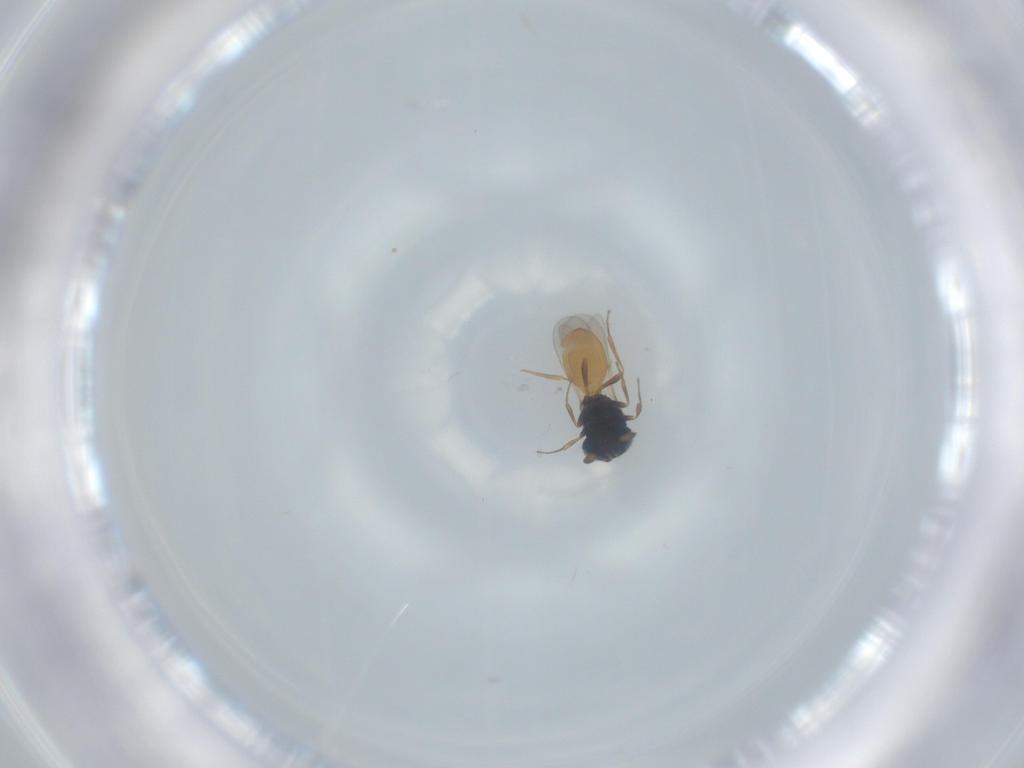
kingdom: Animalia
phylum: Arthropoda
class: Insecta
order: Hymenoptera
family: Scelionidae
